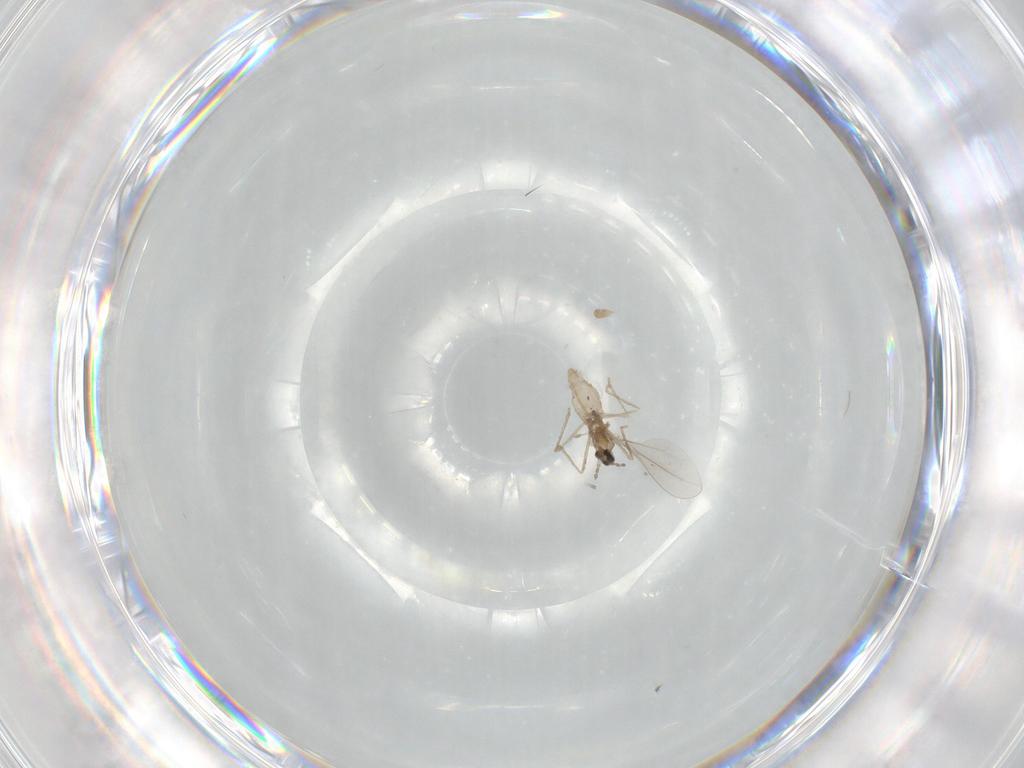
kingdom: Animalia
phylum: Arthropoda
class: Insecta
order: Diptera
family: Cecidomyiidae
